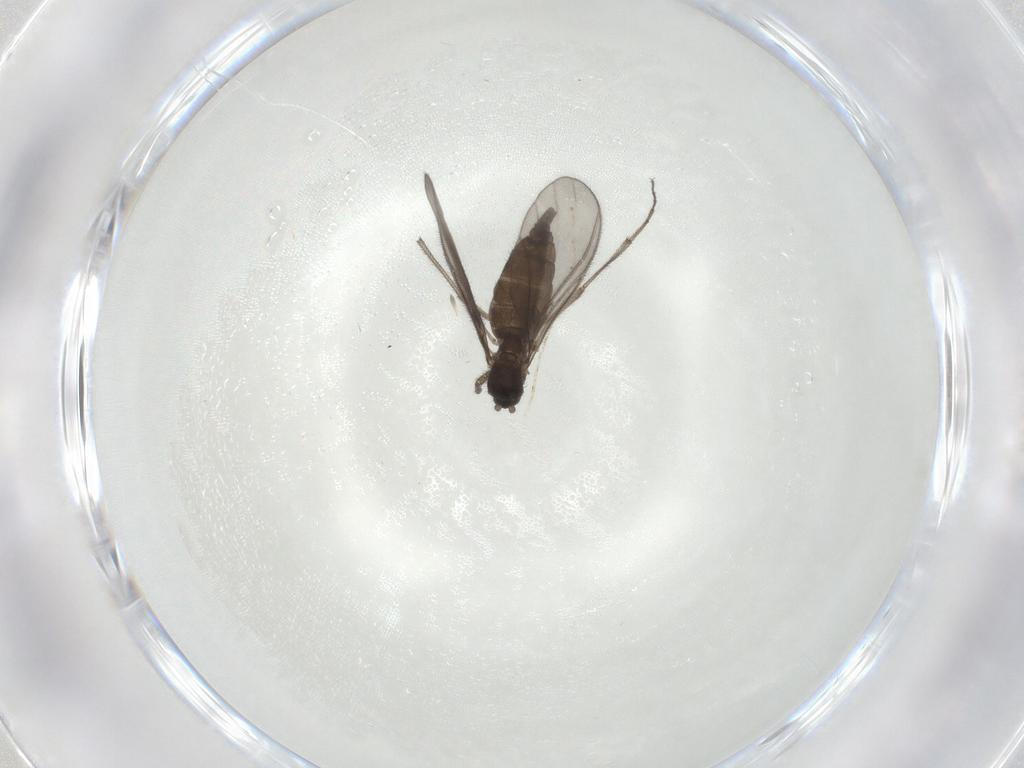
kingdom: Animalia
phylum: Arthropoda
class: Insecta
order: Diptera
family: Sciaridae
